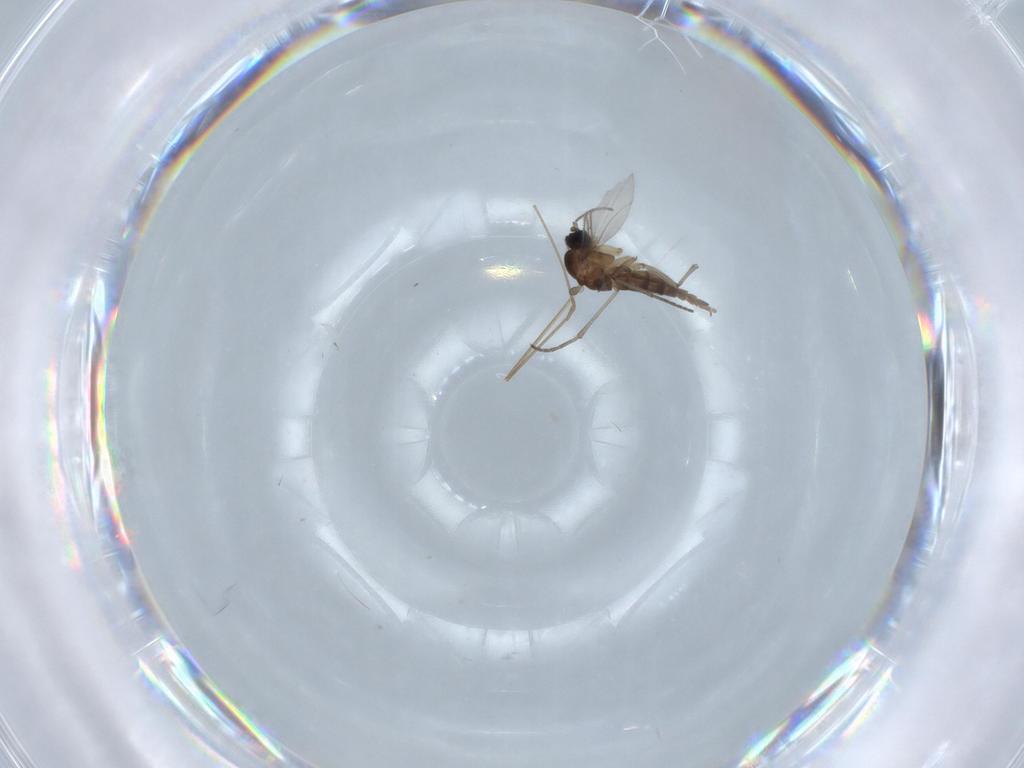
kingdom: Animalia
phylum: Arthropoda
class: Insecta
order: Diptera
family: Cecidomyiidae
